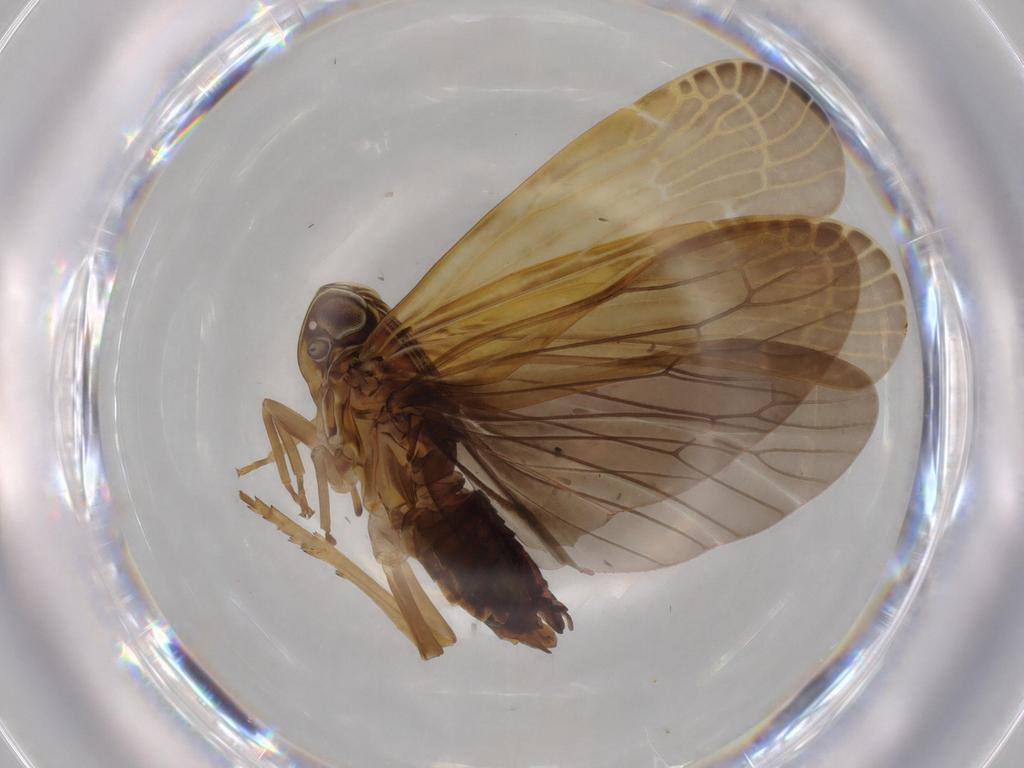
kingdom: Animalia
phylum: Arthropoda
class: Insecta
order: Hemiptera
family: Achilidae
